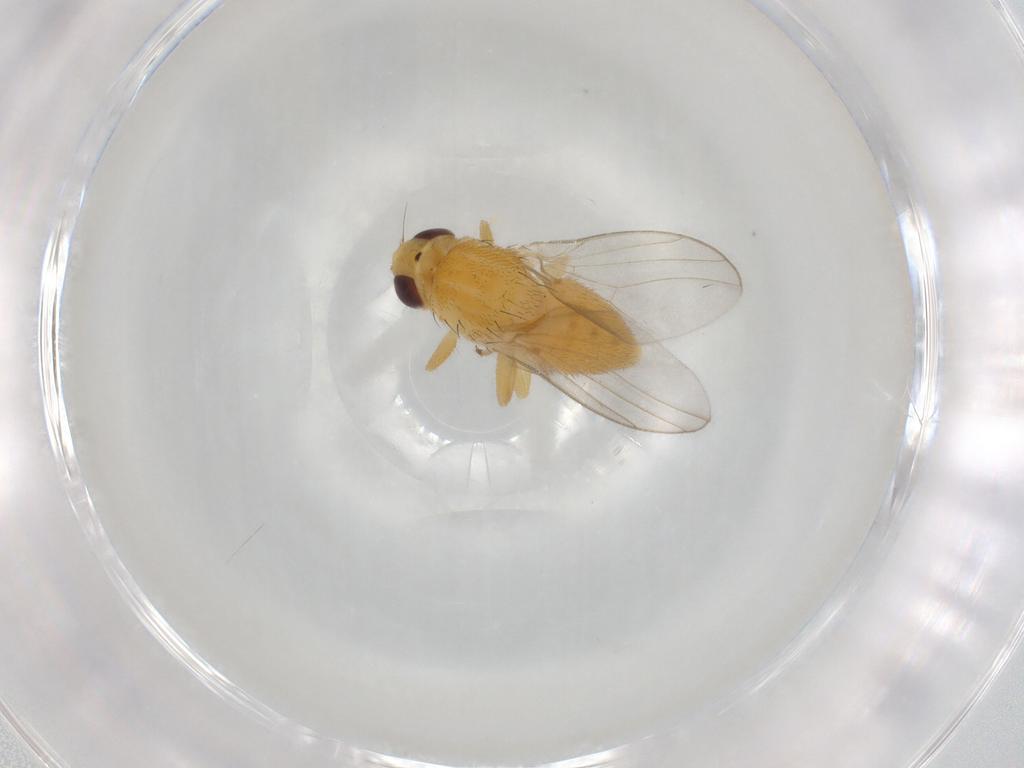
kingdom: Animalia
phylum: Arthropoda
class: Insecta
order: Diptera
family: Chloropidae
